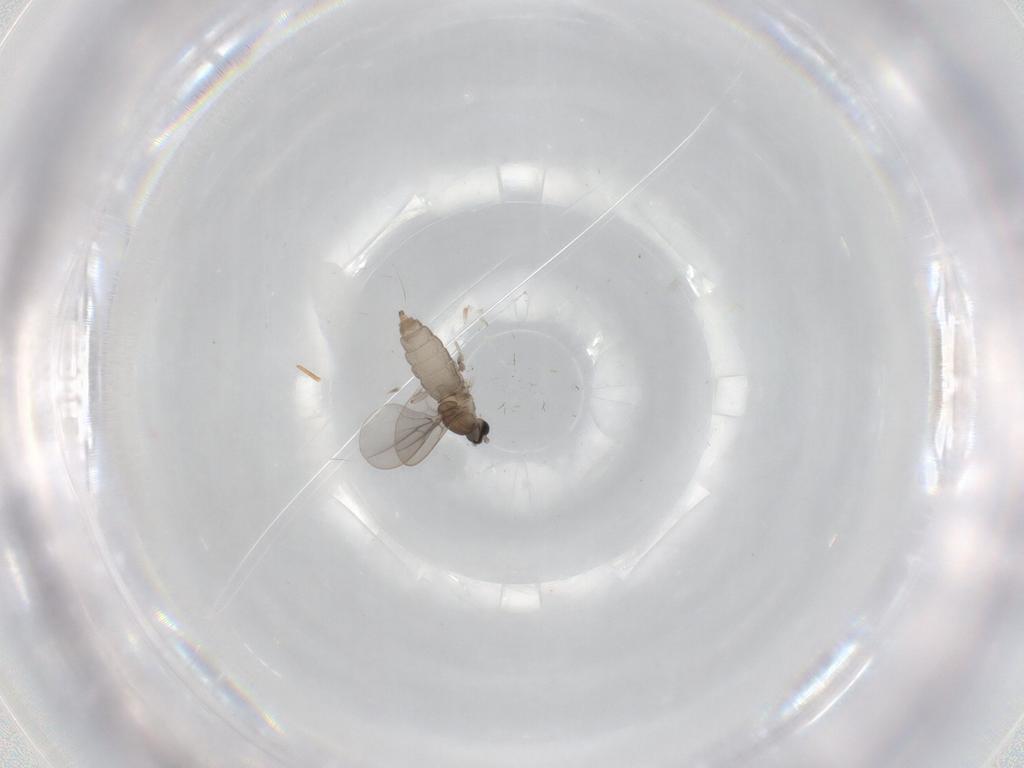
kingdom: Animalia
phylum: Arthropoda
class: Insecta
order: Diptera
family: Cecidomyiidae
